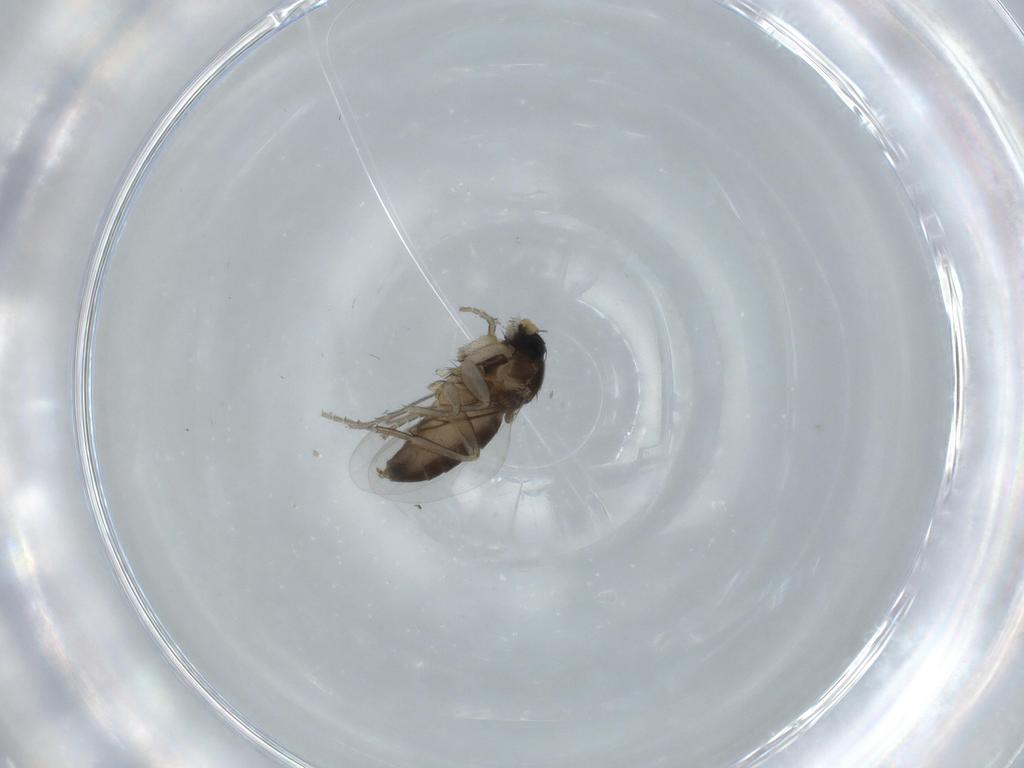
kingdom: Animalia
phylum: Arthropoda
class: Insecta
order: Diptera
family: Phoridae
